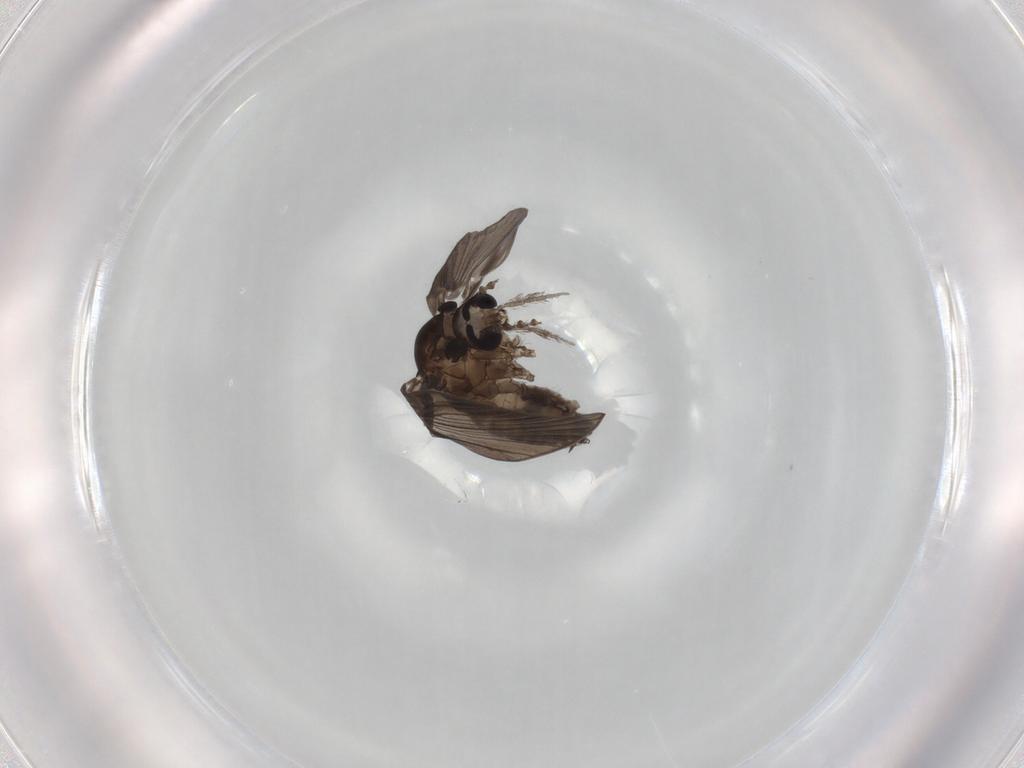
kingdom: Animalia
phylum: Arthropoda
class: Insecta
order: Diptera
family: Psychodidae
